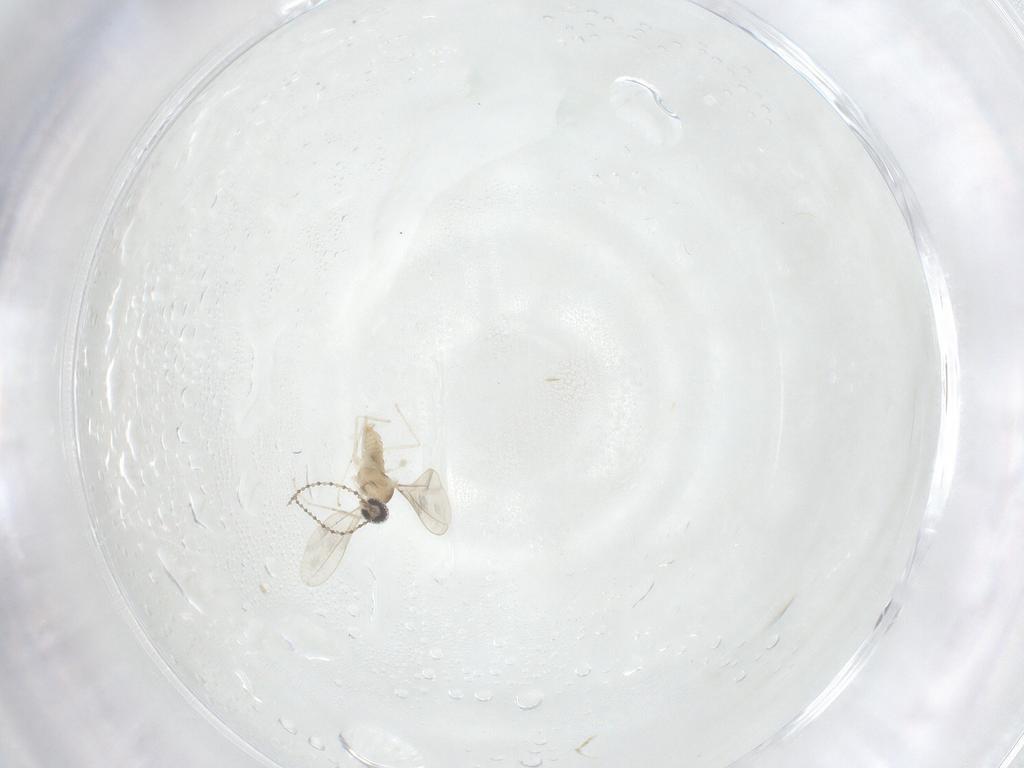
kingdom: Animalia
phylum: Arthropoda
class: Insecta
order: Diptera
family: Cecidomyiidae
